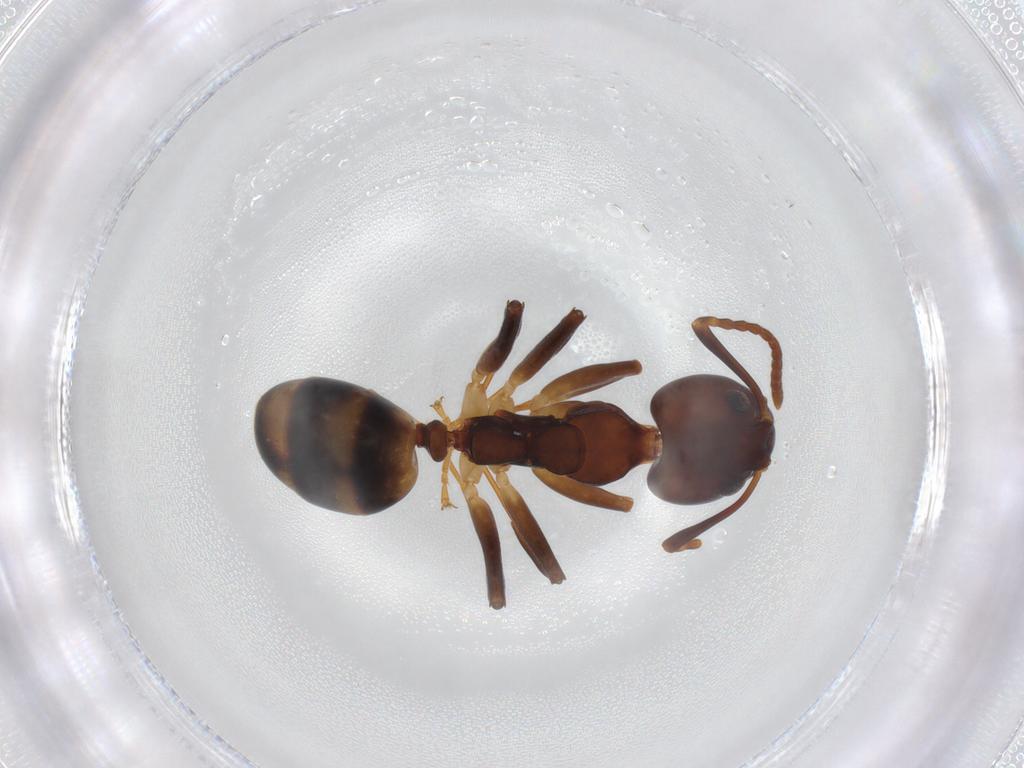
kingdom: Animalia
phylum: Arthropoda
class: Insecta
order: Hymenoptera
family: Formicidae
